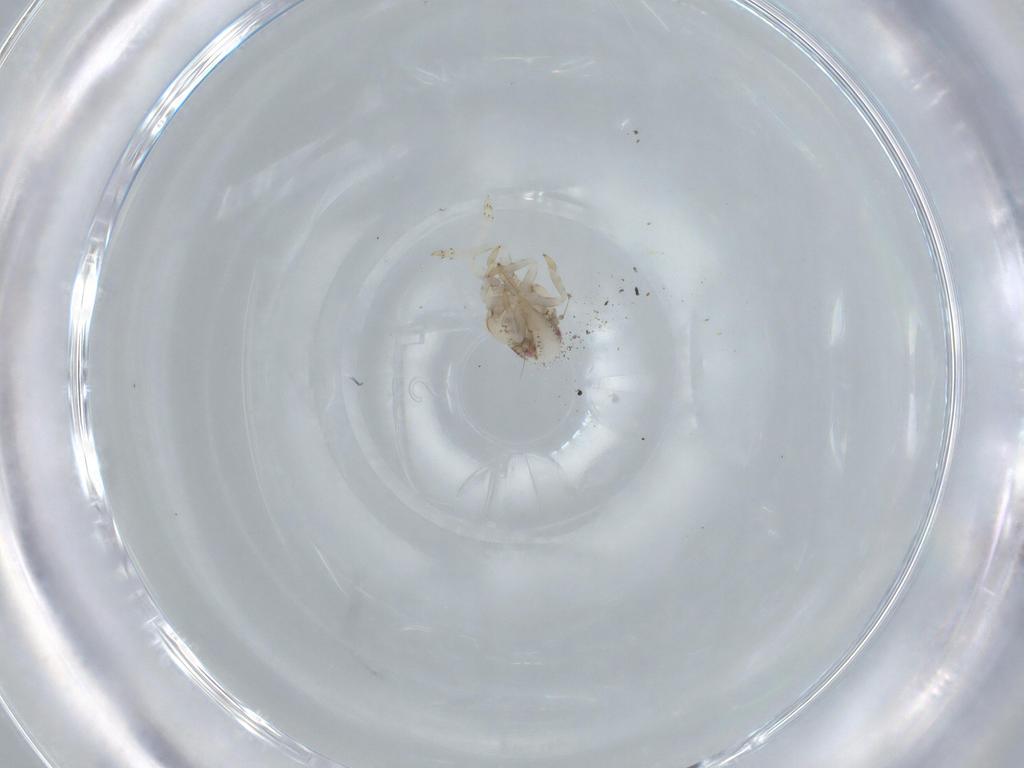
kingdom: Animalia
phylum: Arthropoda
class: Insecta
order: Hemiptera
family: Acanaloniidae
